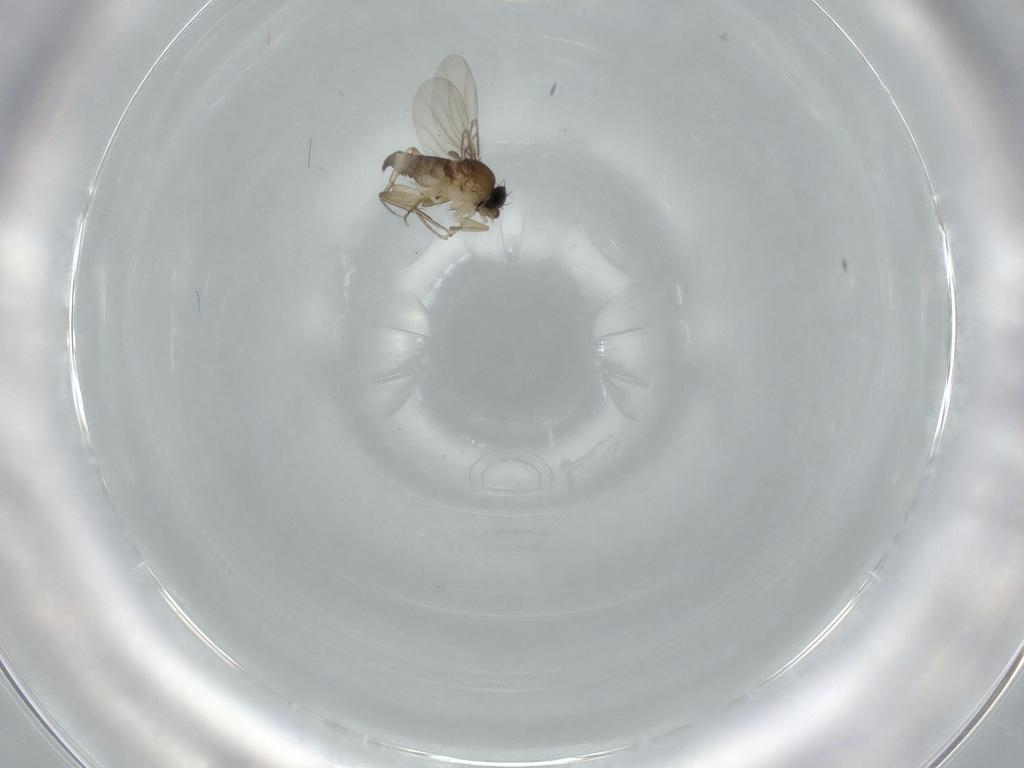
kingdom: Animalia
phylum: Arthropoda
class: Insecta
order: Diptera
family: Phoridae
